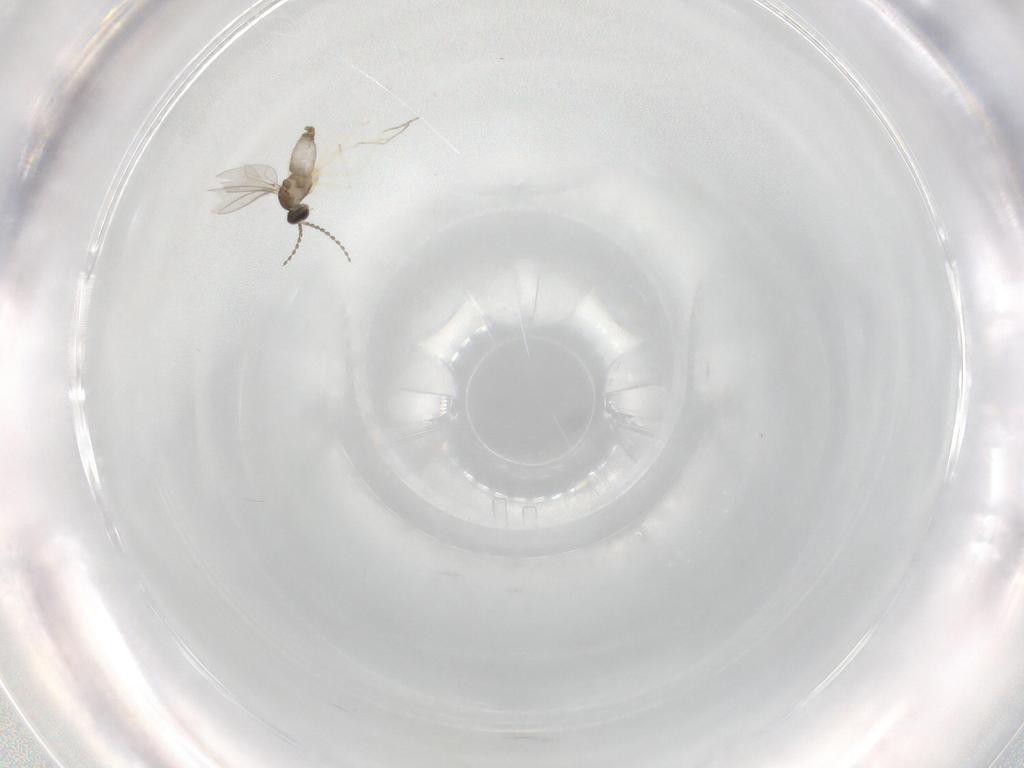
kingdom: Animalia
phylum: Arthropoda
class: Insecta
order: Diptera
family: Cecidomyiidae
